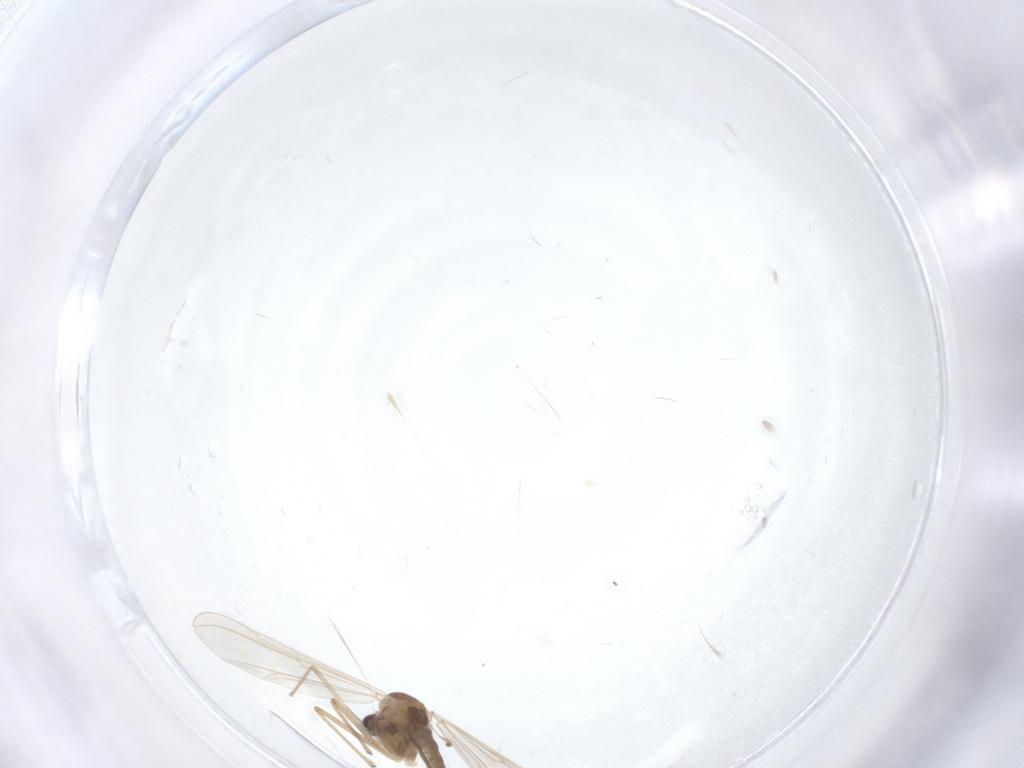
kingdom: Animalia
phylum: Arthropoda
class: Insecta
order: Diptera
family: Chironomidae
